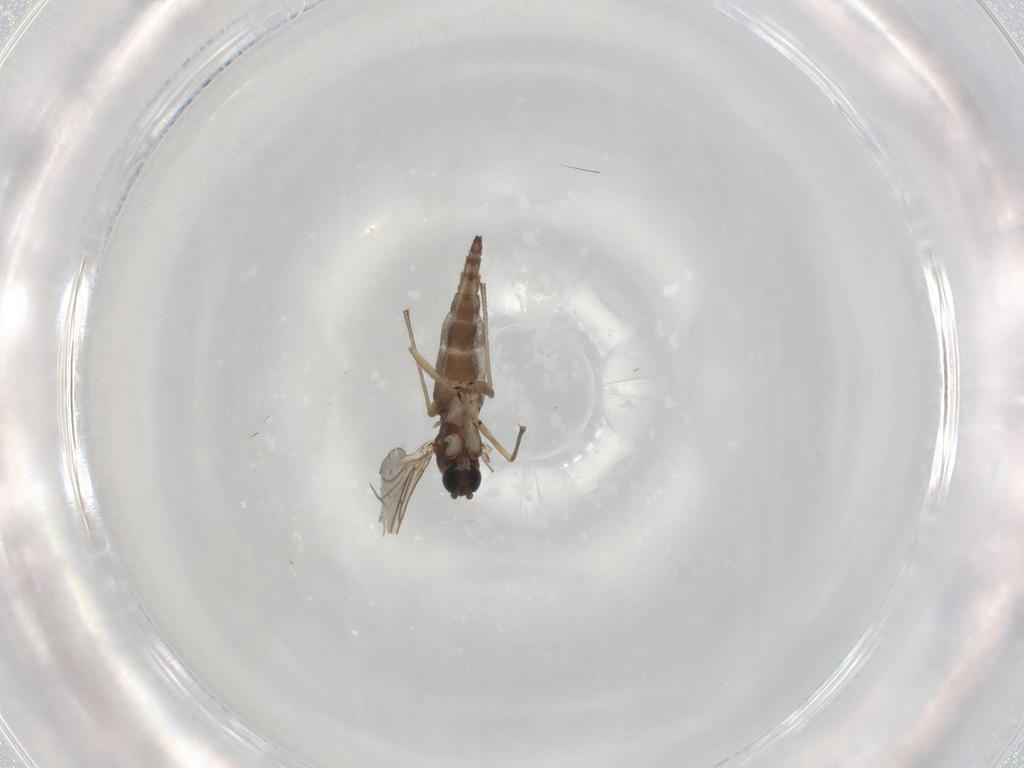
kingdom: Animalia
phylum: Arthropoda
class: Insecta
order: Diptera
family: Sciaridae
